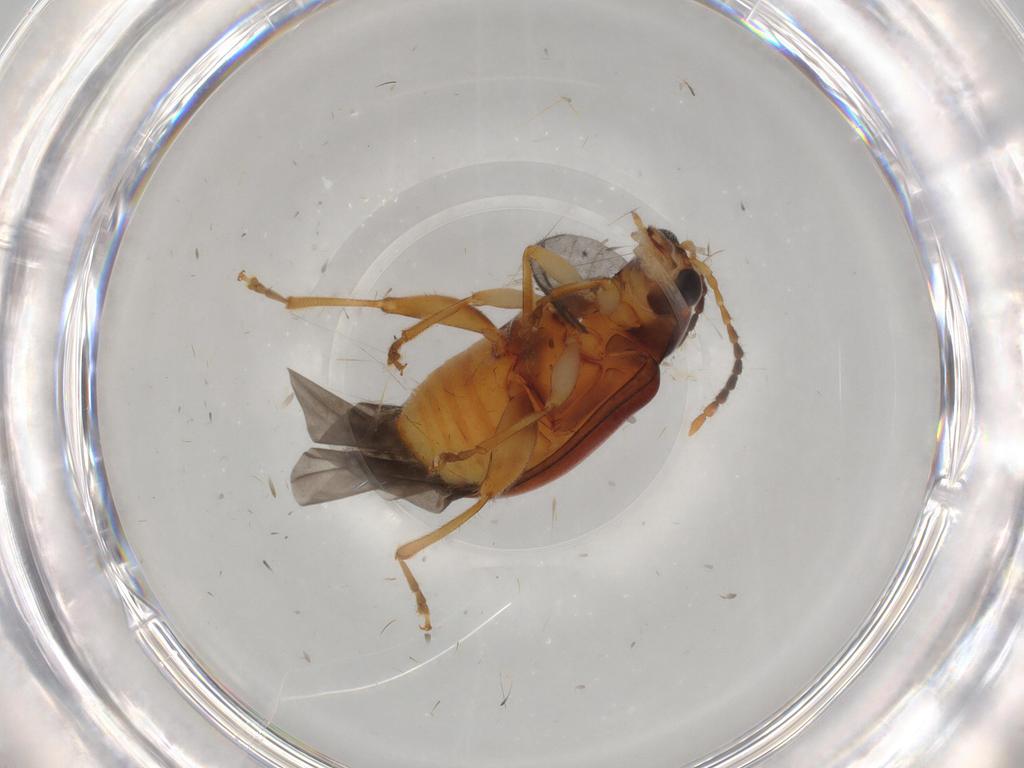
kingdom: Animalia
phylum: Arthropoda
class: Insecta
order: Coleoptera
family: Chrysomelidae
